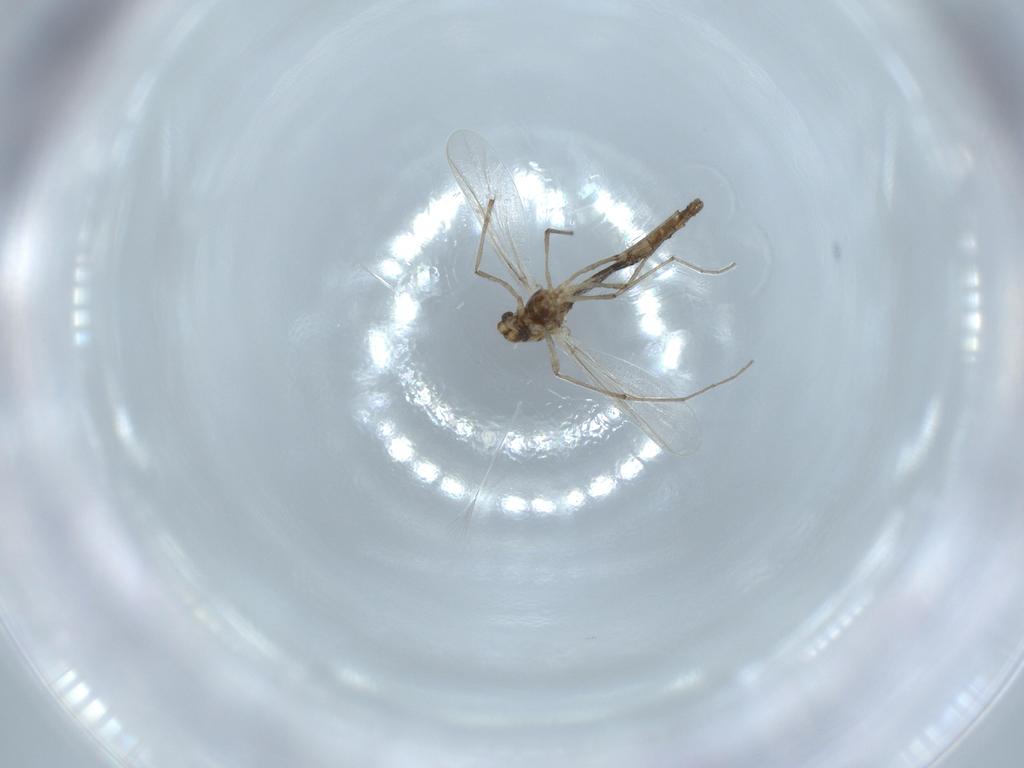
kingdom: Animalia
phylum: Arthropoda
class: Insecta
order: Diptera
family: Chironomidae
